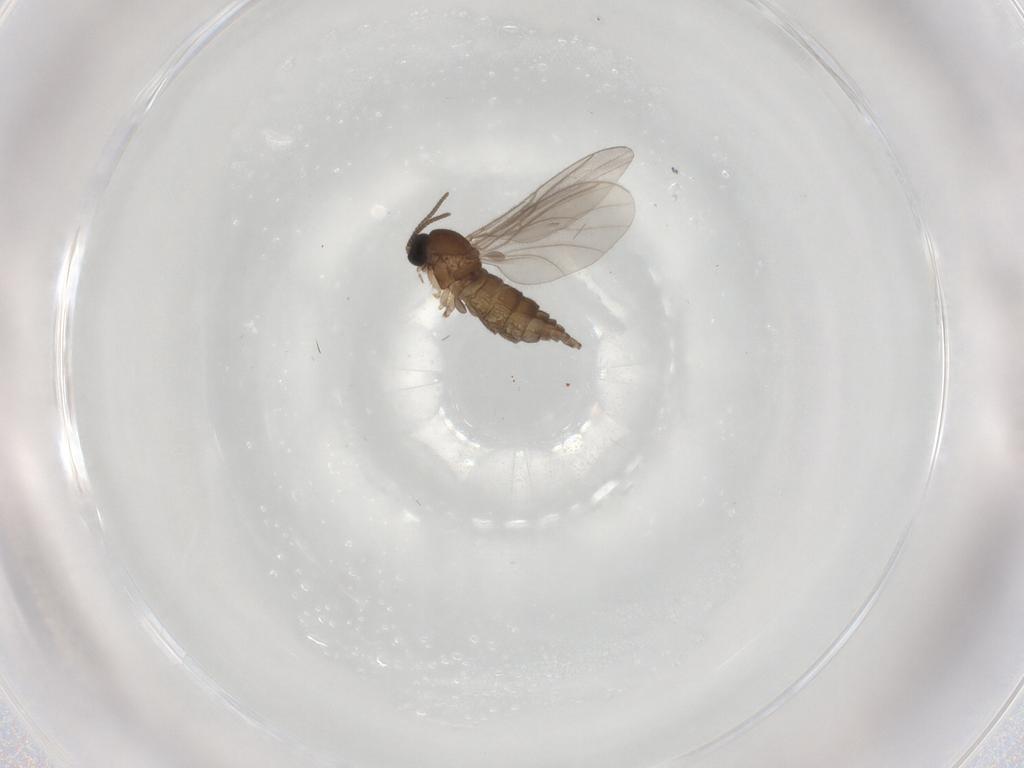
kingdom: Animalia
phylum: Arthropoda
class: Insecta
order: Diptera
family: Sciaridae
